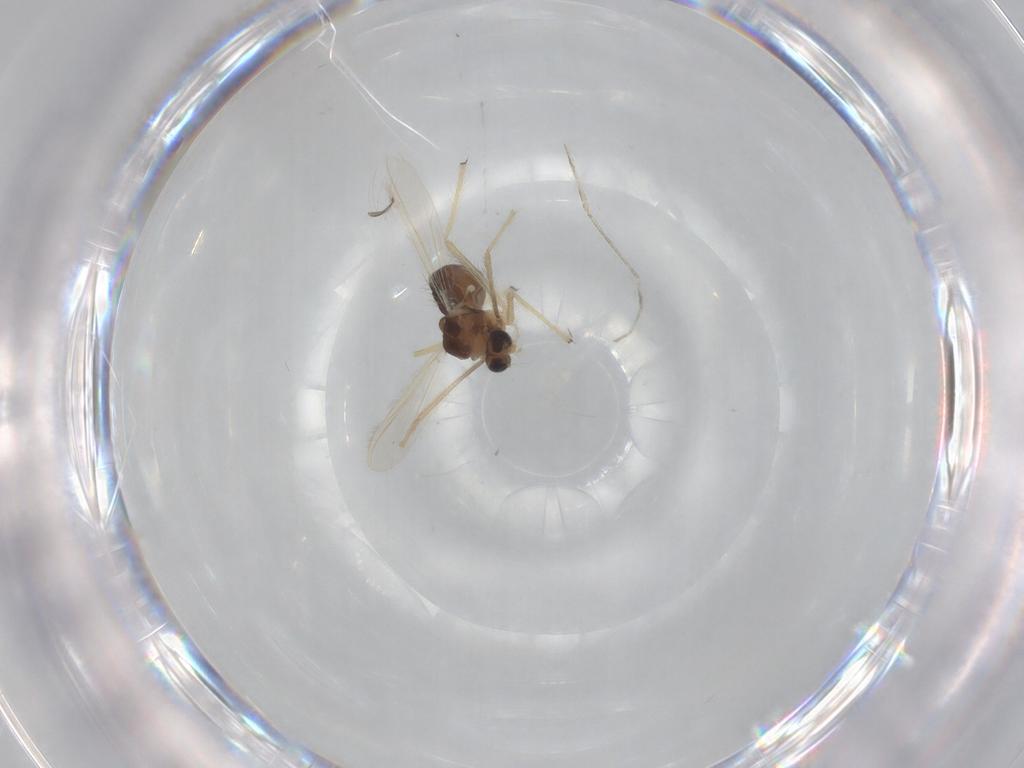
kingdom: Animalia
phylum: Arthropoda
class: Insecta
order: Diptera
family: Chironomidae
